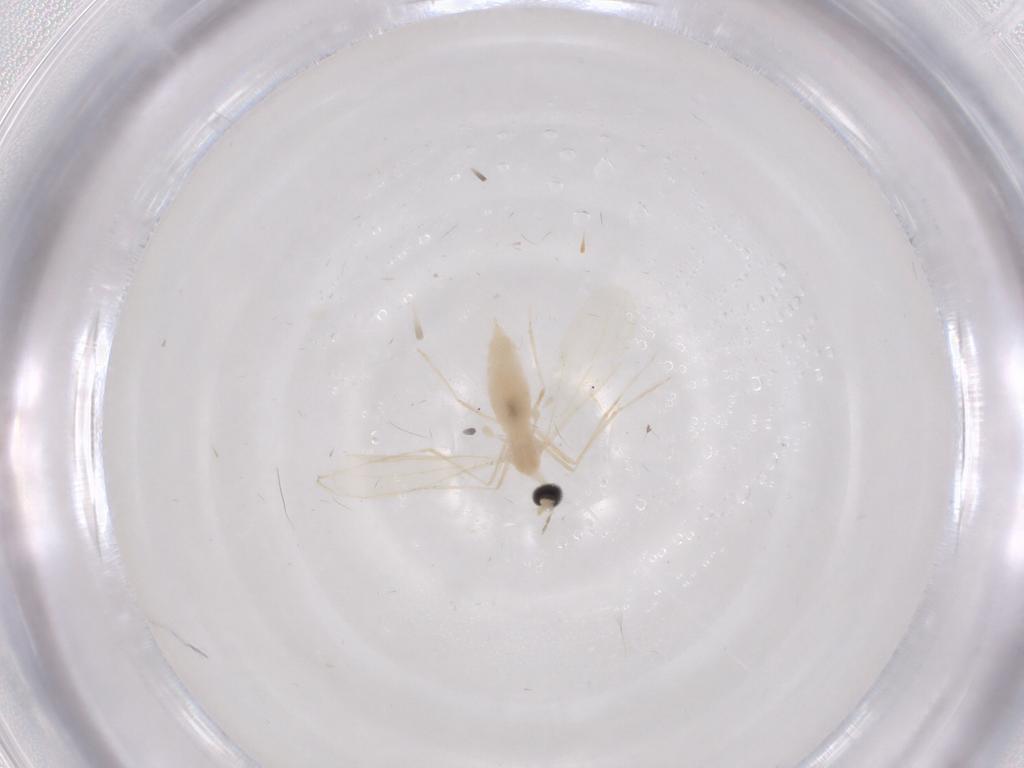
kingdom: Animalia
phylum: Arthropoda
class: Insecta
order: Diptera
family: Cecidomyiidae
